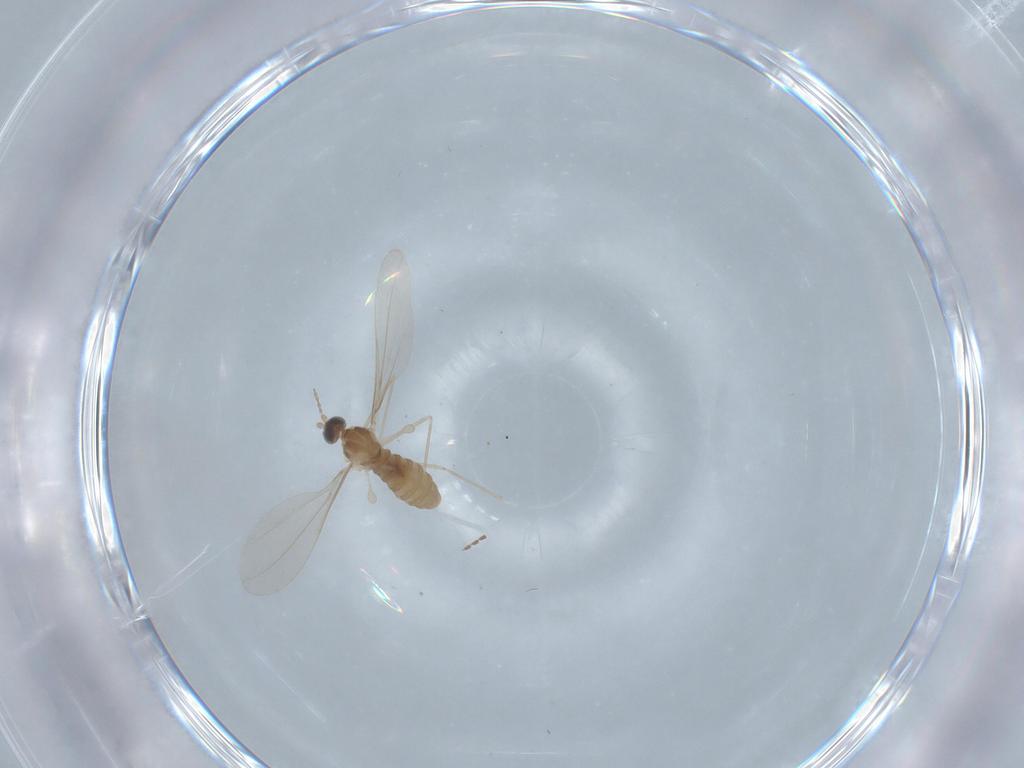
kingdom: Animalia
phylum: Arthropoda
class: Insecta
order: Diptera
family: Cecidomyiidae
